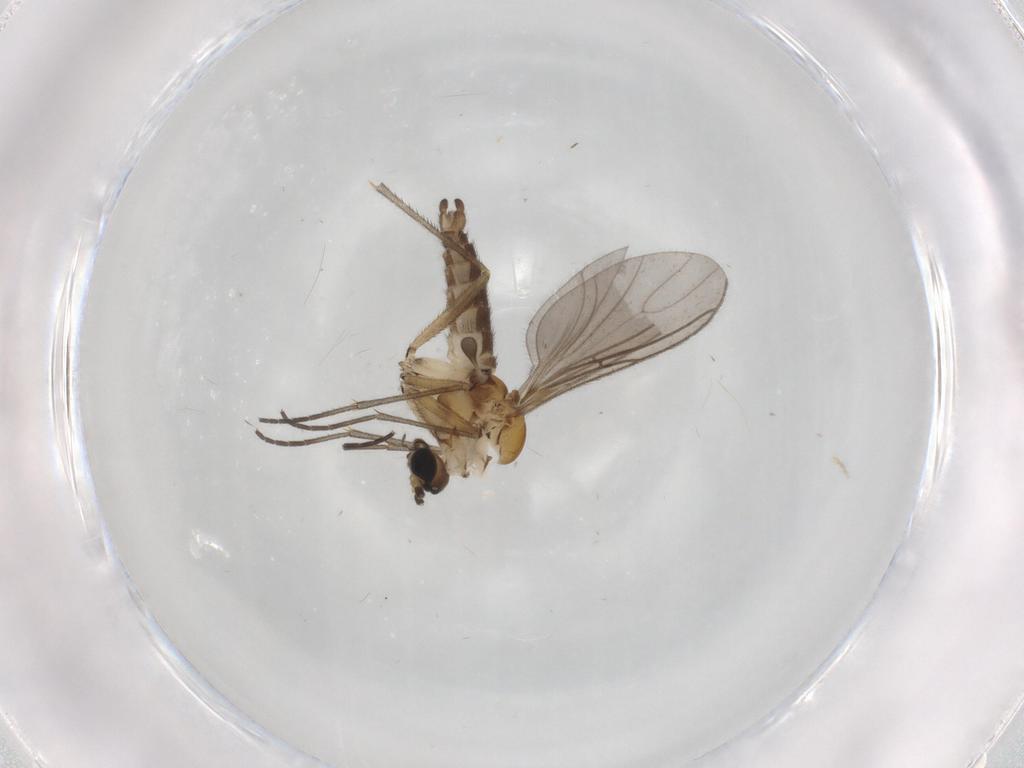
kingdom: Animalia
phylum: Arthropoda
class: Insecta
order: Diptera
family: Sciaridae
